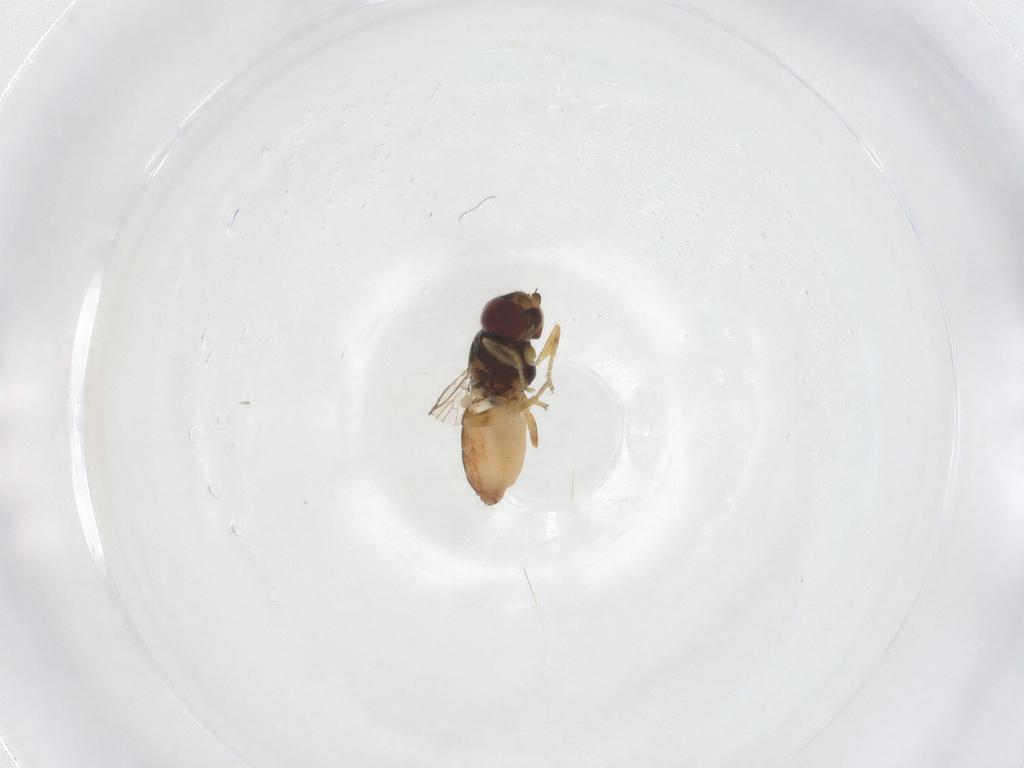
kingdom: Animalia
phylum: Arthropoda
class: Insecta
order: Diptera
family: Chloropidae
